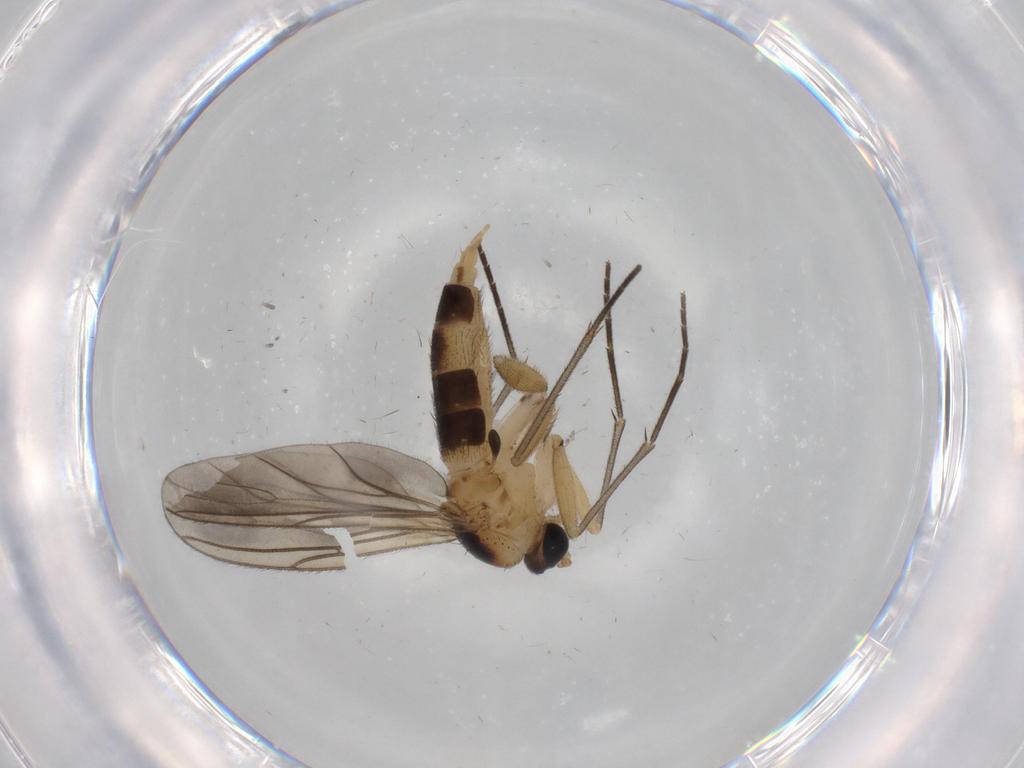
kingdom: Animalia
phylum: Arthropoda
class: Insecta
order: Diptera
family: Sciaridae
